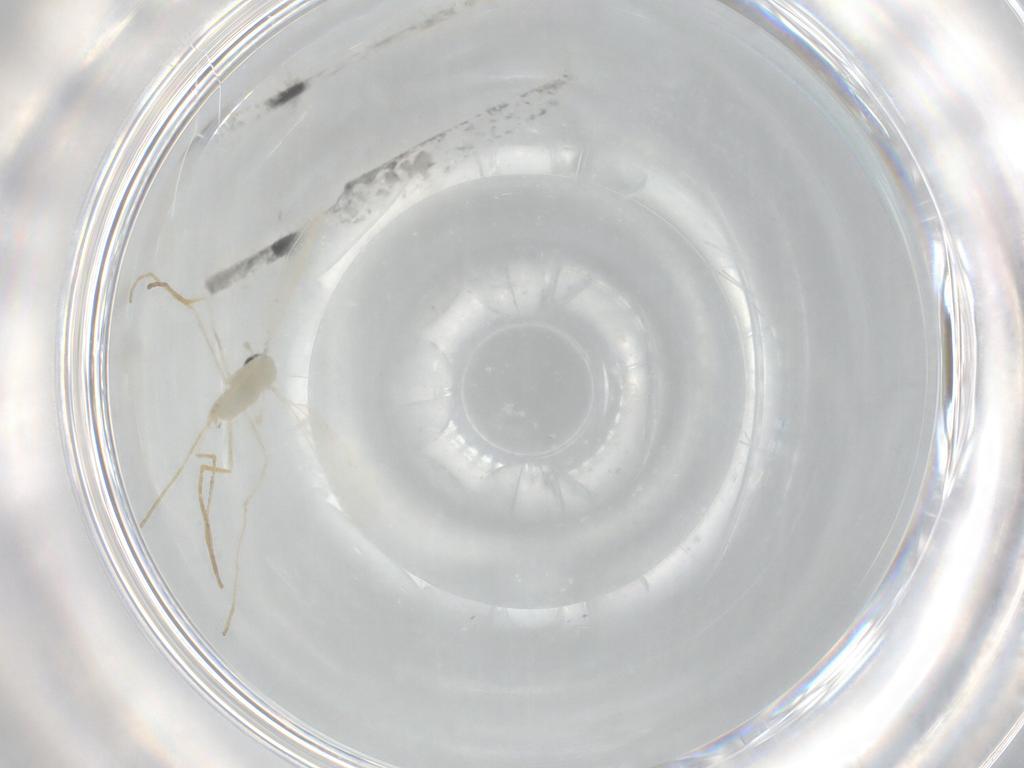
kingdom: Animalia
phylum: Arthropoda
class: Insecta
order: Diptera
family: Cecidomyiidae
